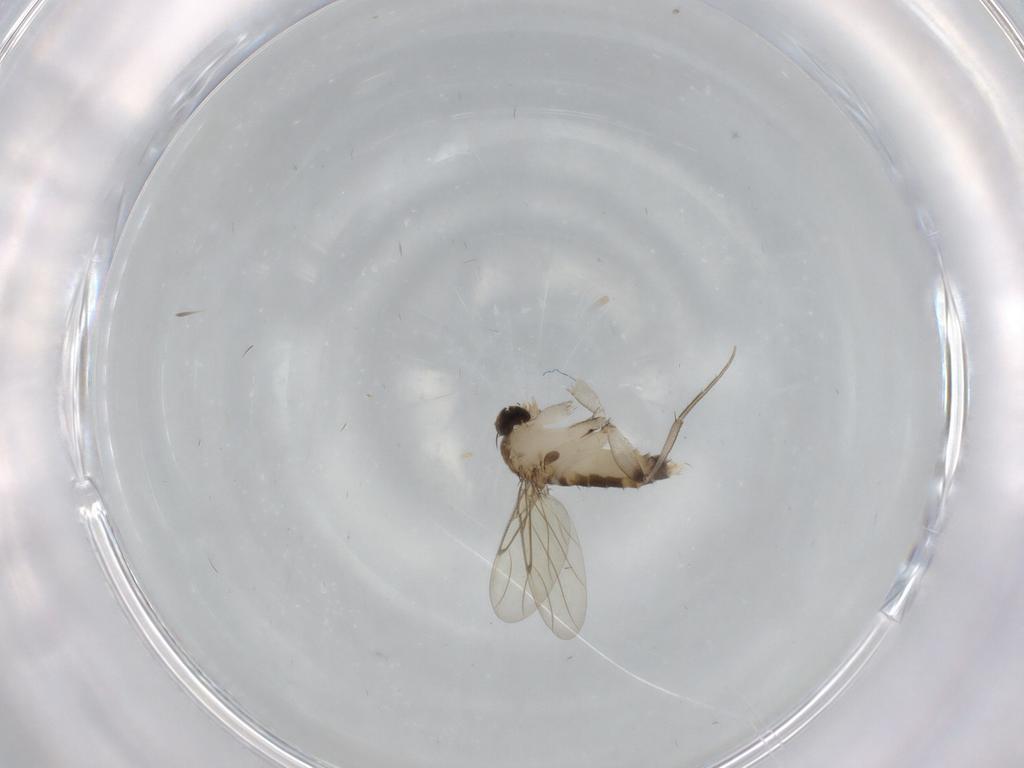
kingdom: Animalia
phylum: Arthropoda
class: Insecta
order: Diptera
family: Phoridae
